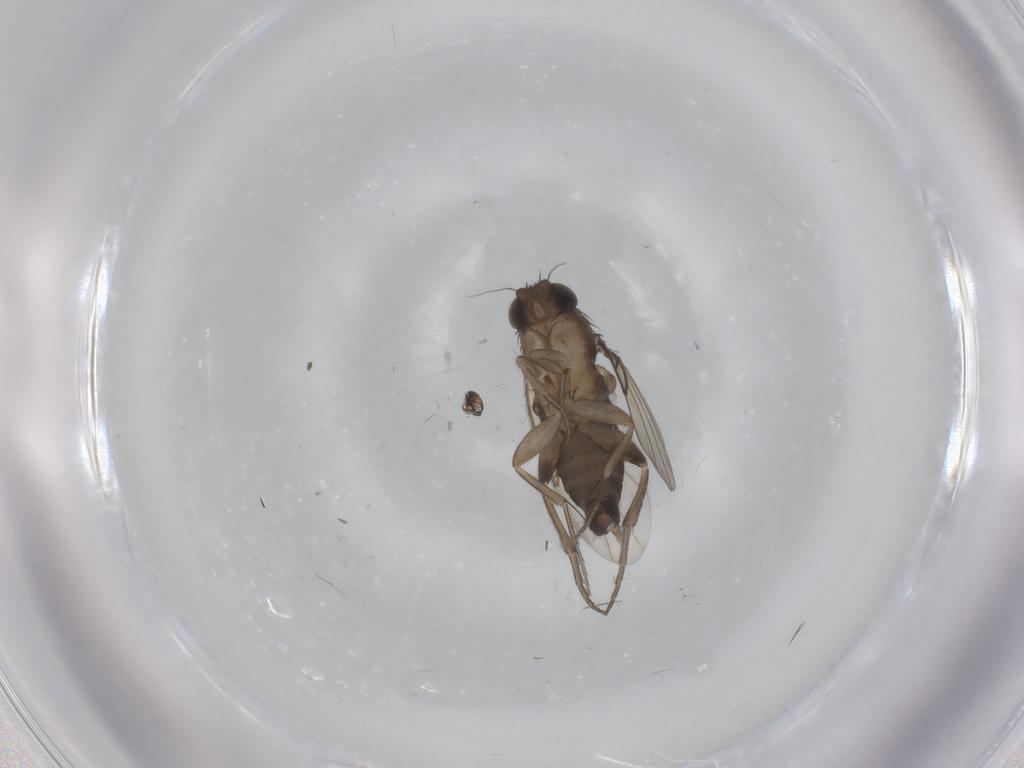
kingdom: Animalia
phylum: Arthropoda
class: Insecta
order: Diptera
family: Phoridae
